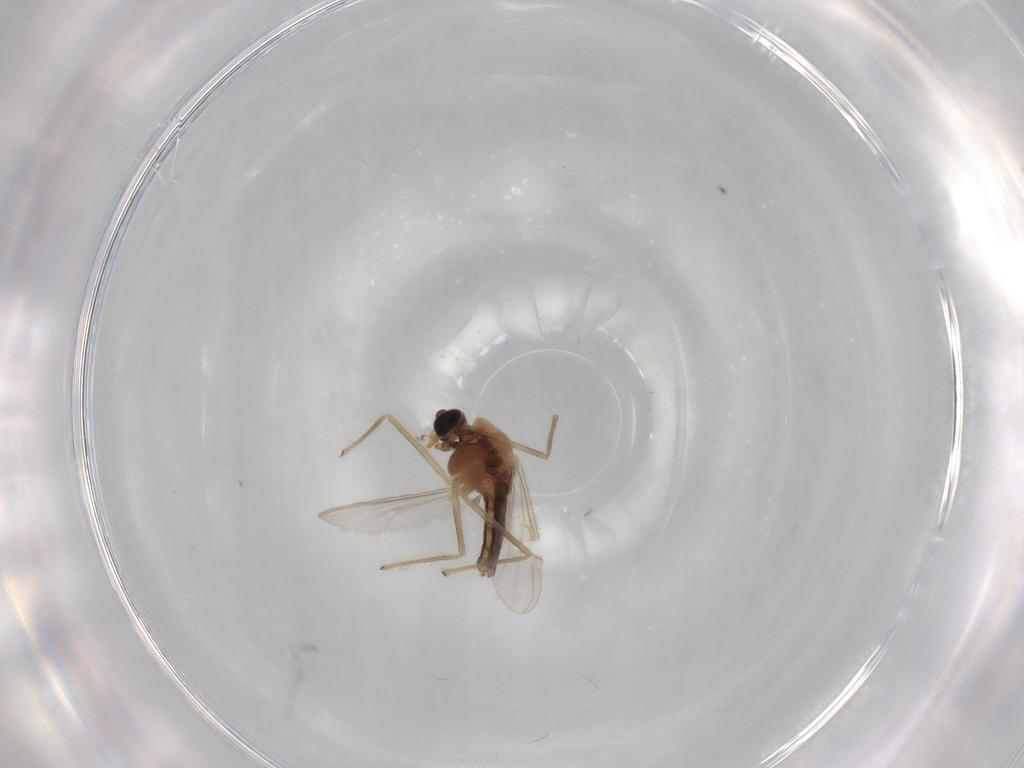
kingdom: Animalia
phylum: Arthropoda
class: Insecta
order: Diptera
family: Chironomidae
